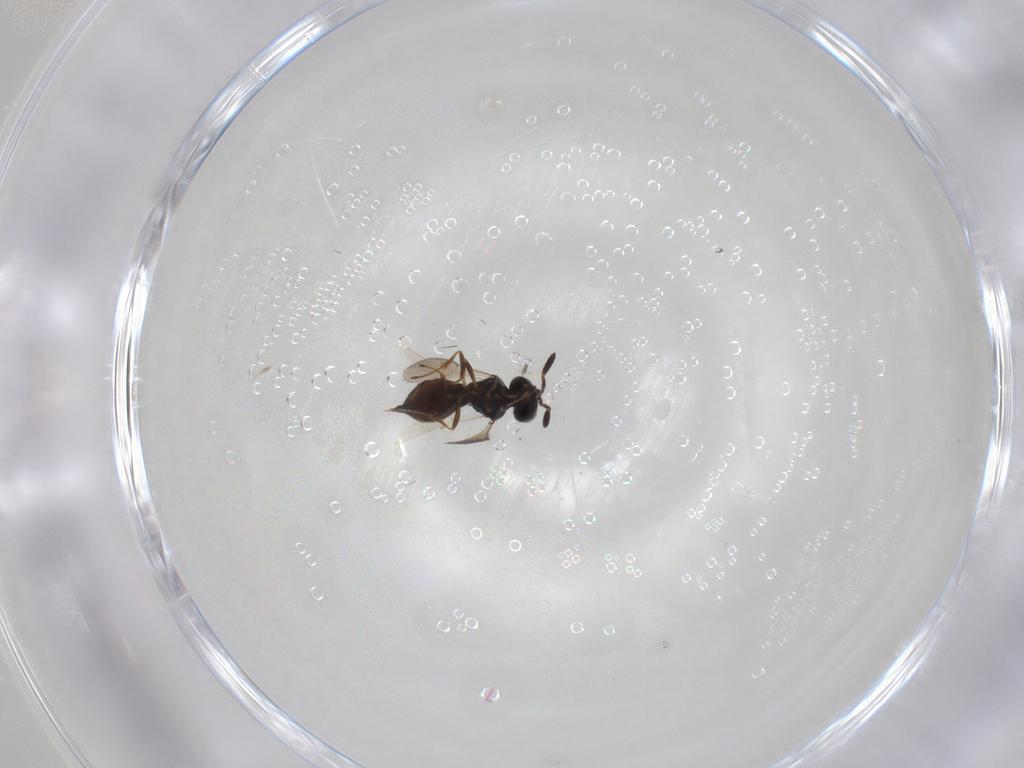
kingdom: Animalia
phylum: Arthropoda
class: Insecta
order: Hymenoptera
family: Scelionidae
